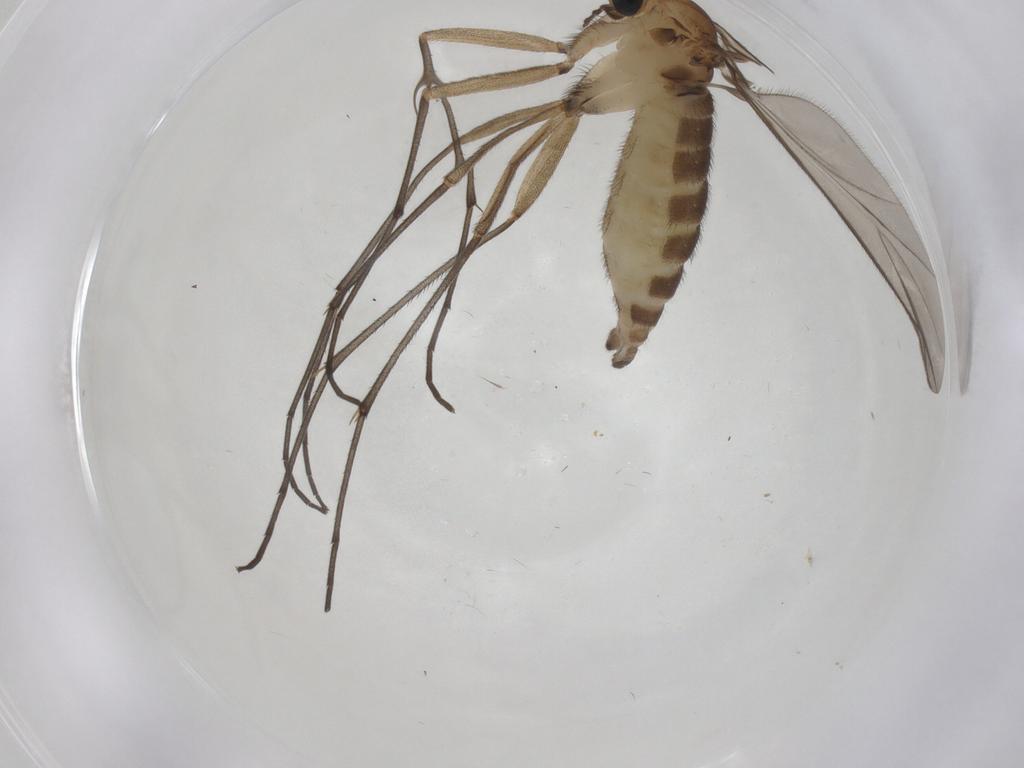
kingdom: Animalia
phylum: Arthropoda
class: Insecta
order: Diptera
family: Sciaridae
